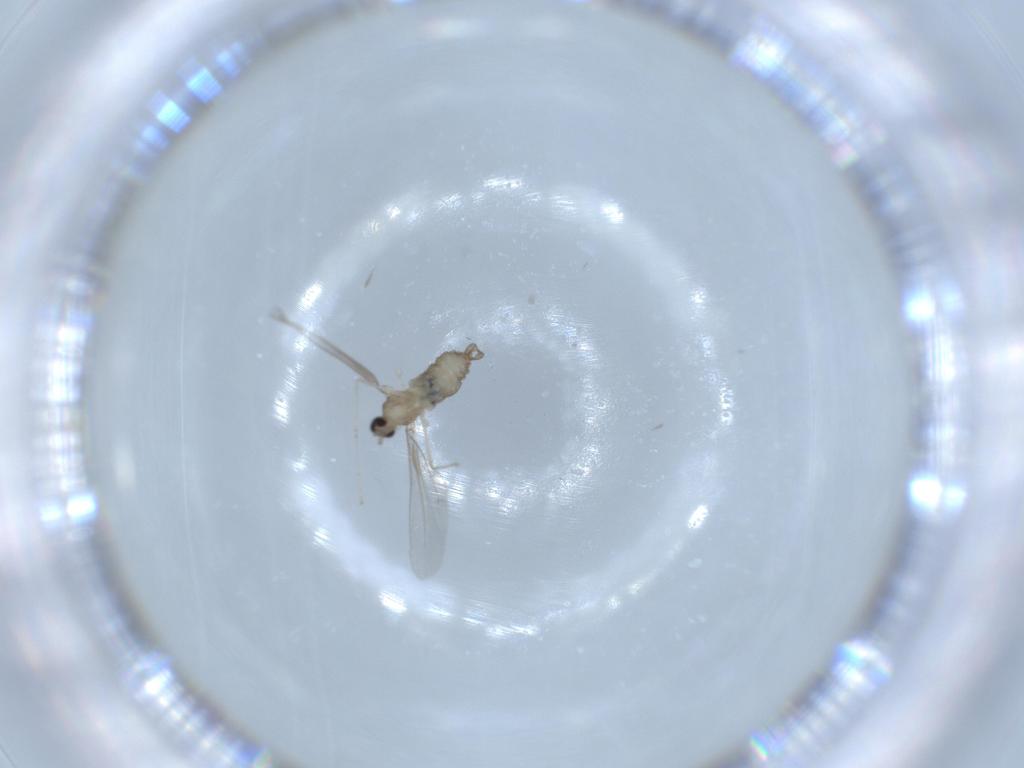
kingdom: Animalia
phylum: Arthropoda
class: Insecta
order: Diptera
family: Cecidomyiidae
